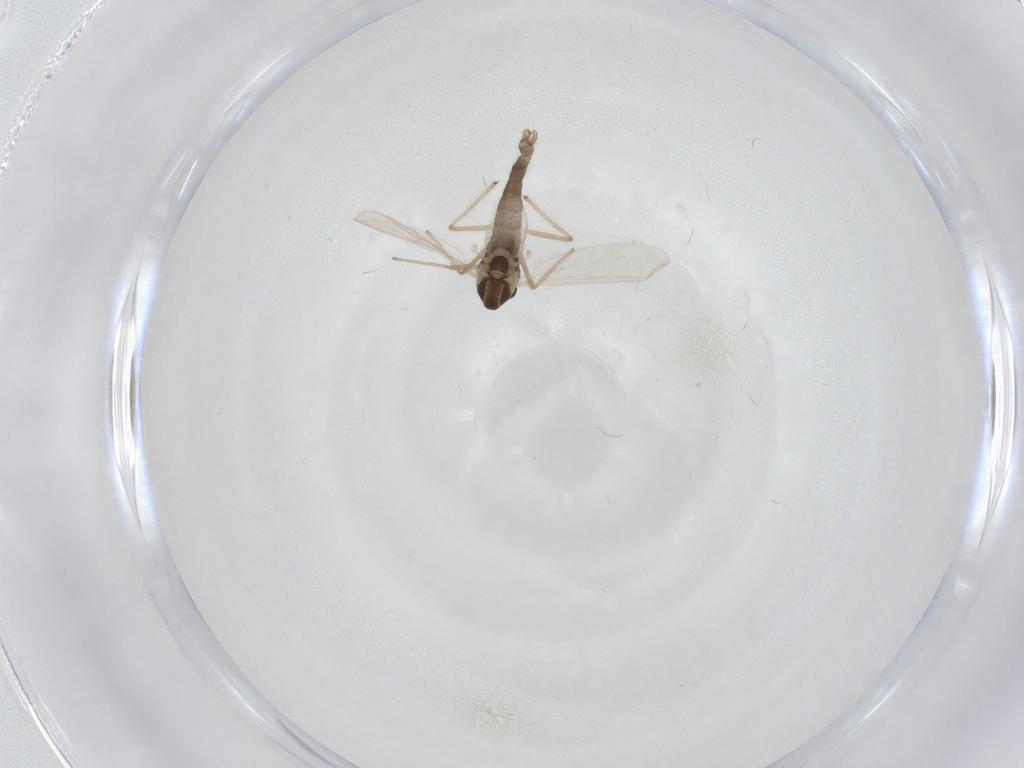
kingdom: Animalia
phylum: Arthropoda
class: Insecta
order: Diptera
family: Chironomidae
